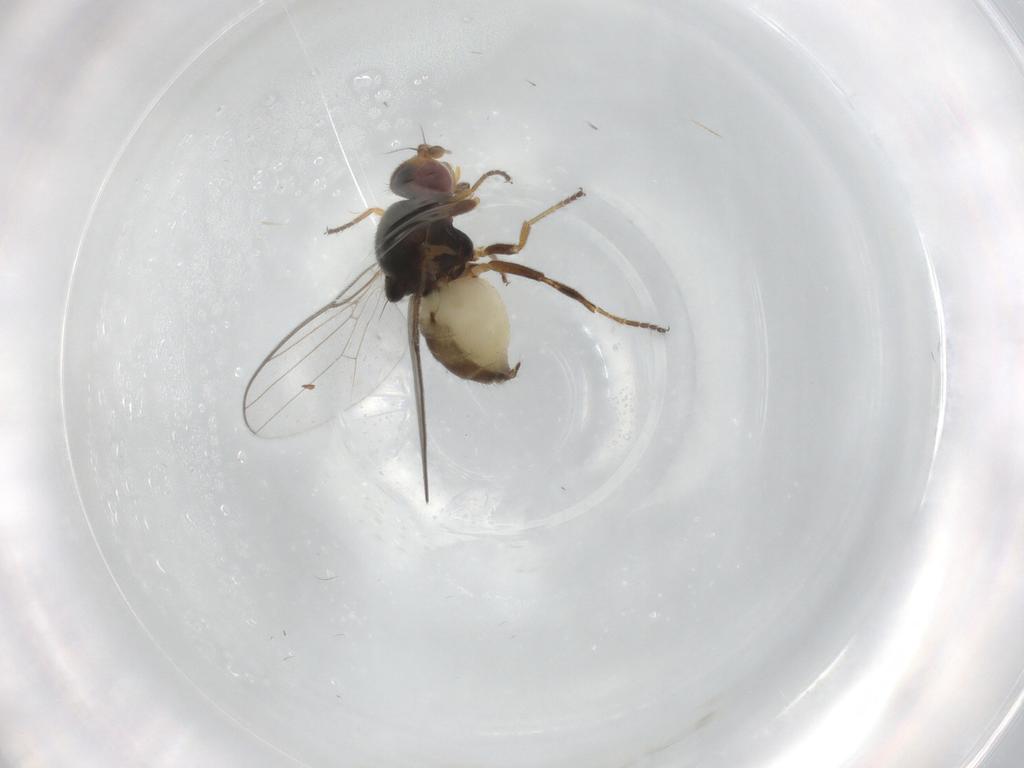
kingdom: Animalia
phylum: Arthropoda
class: Insecta
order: Diptera
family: Chloropidae
